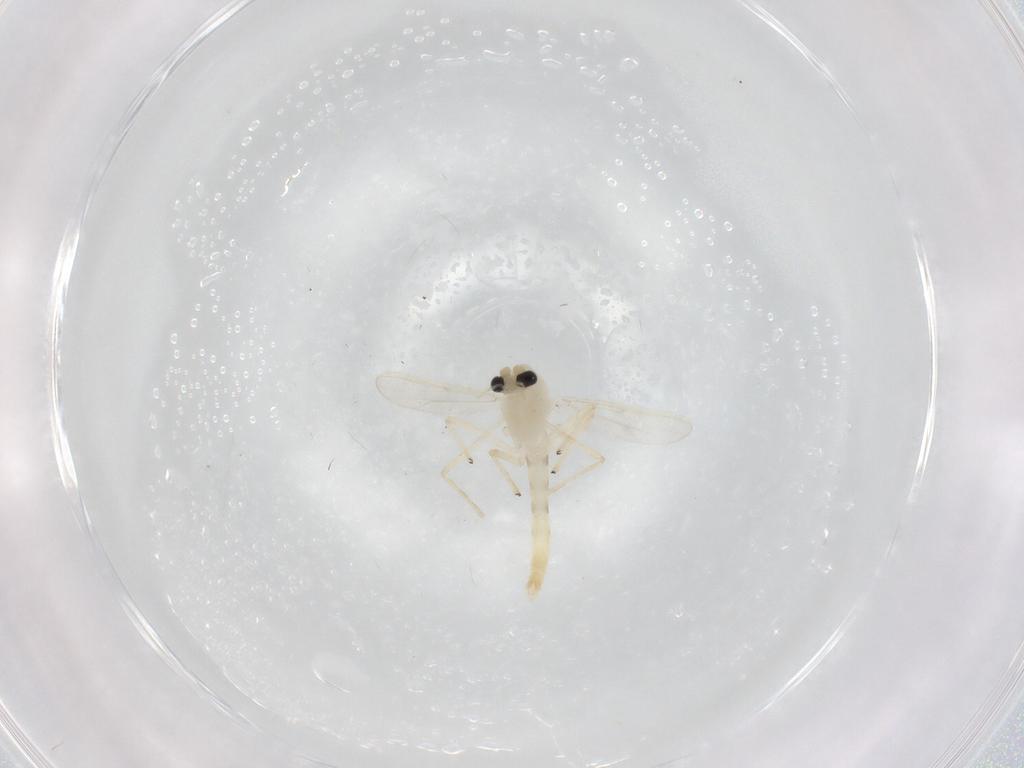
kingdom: Animalia
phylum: Arthropoda
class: Insecta
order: Diptera
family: Chironomidae
